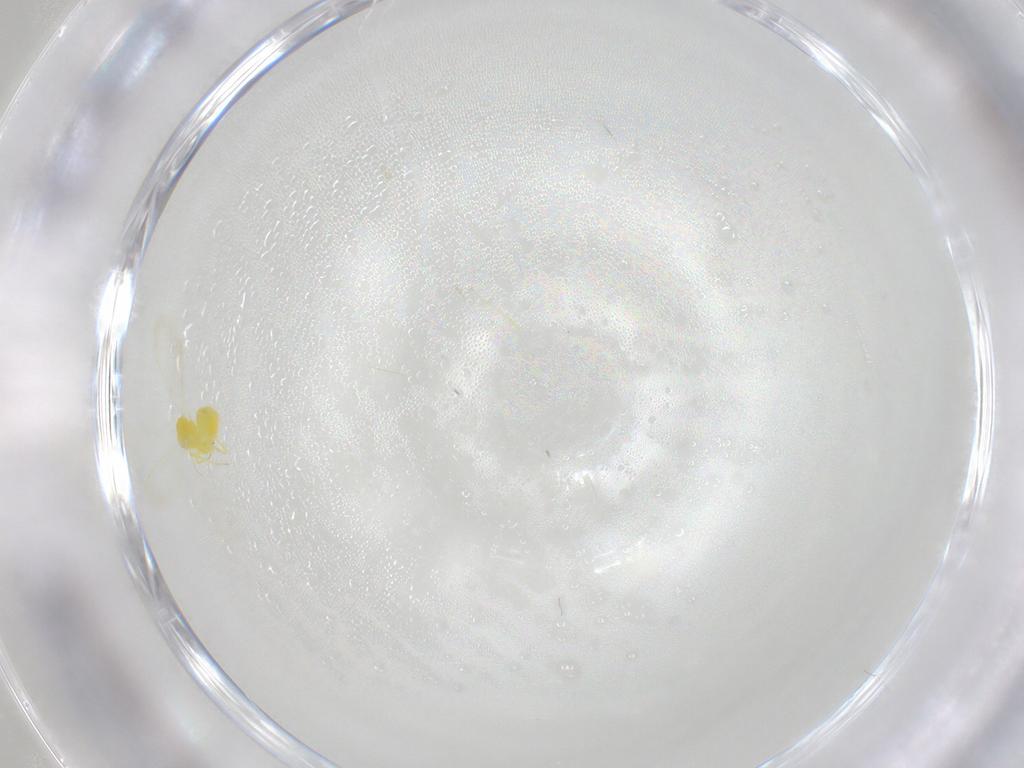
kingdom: Animalia
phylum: Arthropoda
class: Insecta
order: Hemiptera
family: Aleyrodidae
